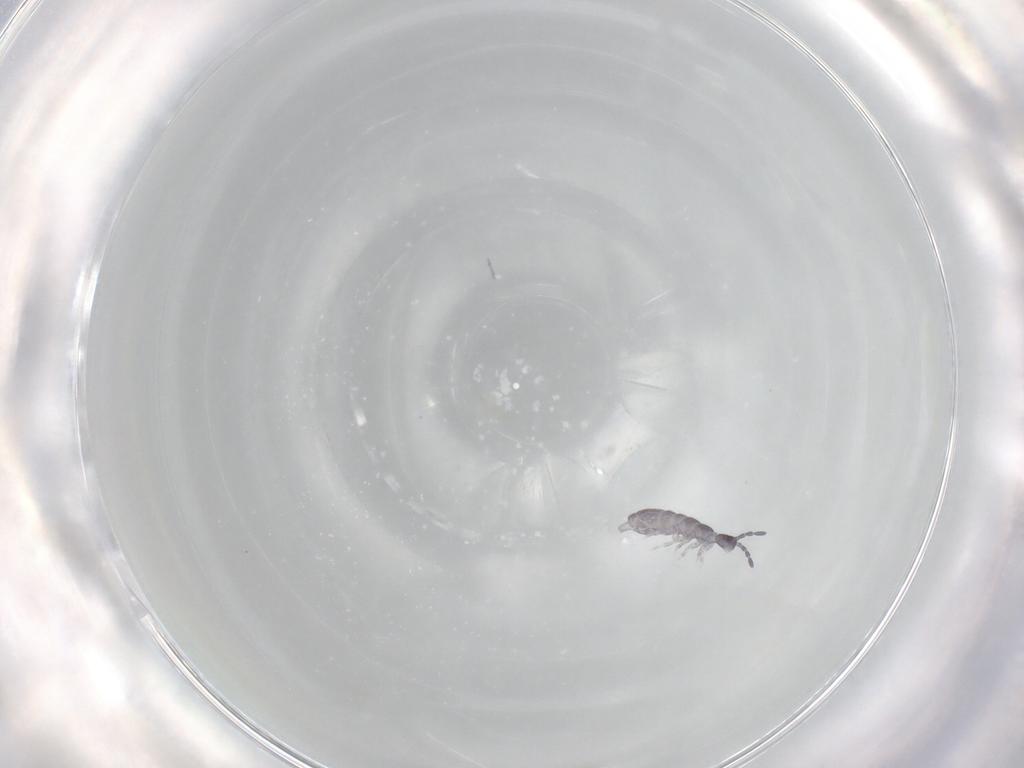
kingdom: Animalia
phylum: Arthropoda
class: Collembola
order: Entomobryomorpha
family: Isotomidae
